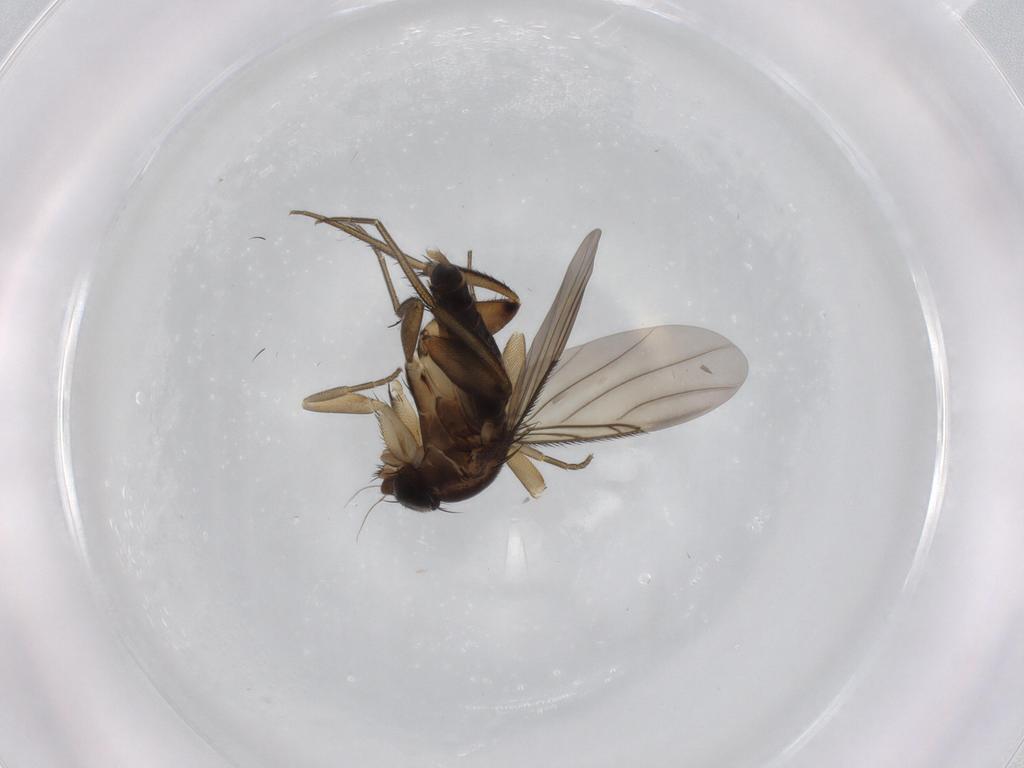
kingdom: Animalia
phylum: Arthropoda
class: Insecta
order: Diptera
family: Phoridae
